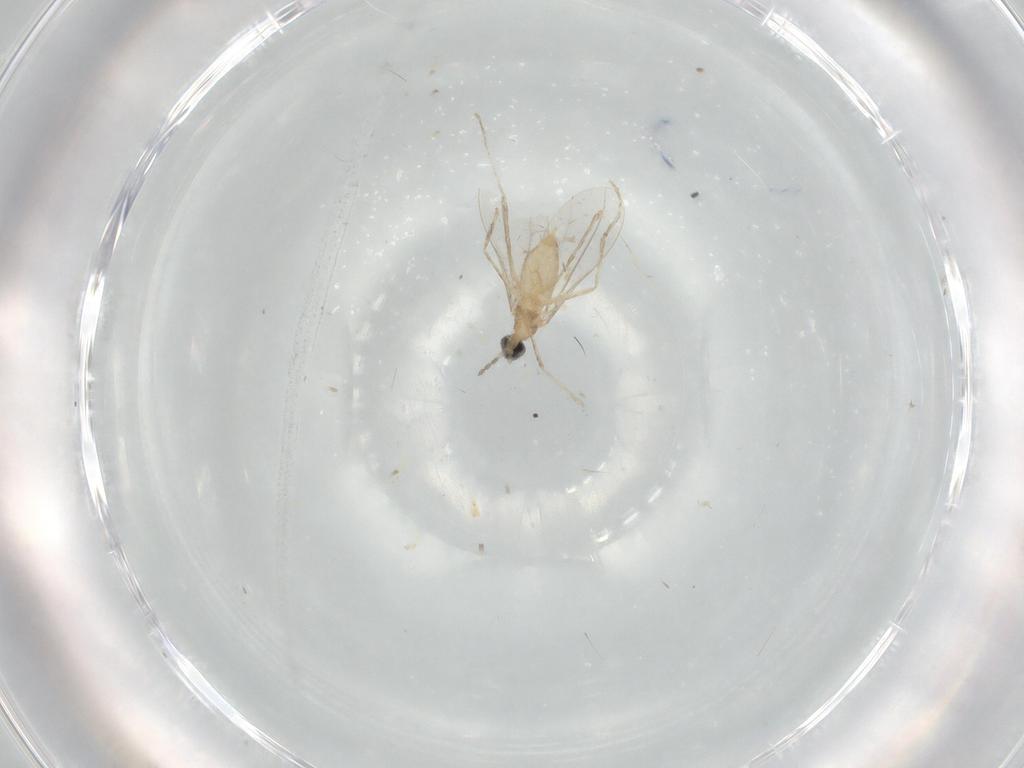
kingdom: Animalia
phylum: Arthropoda
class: Insecta
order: Diptera
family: Cecidomyiidae
